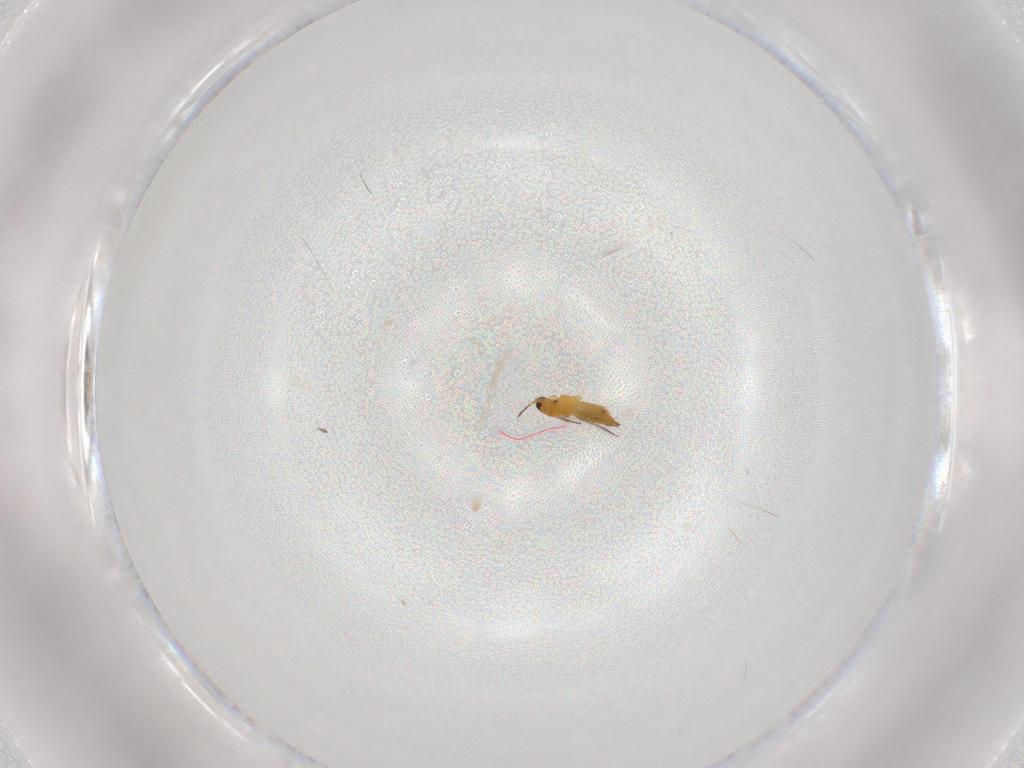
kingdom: Animalia
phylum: Arthropoda
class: Insecta
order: Thysanoptera
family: Thripidae
